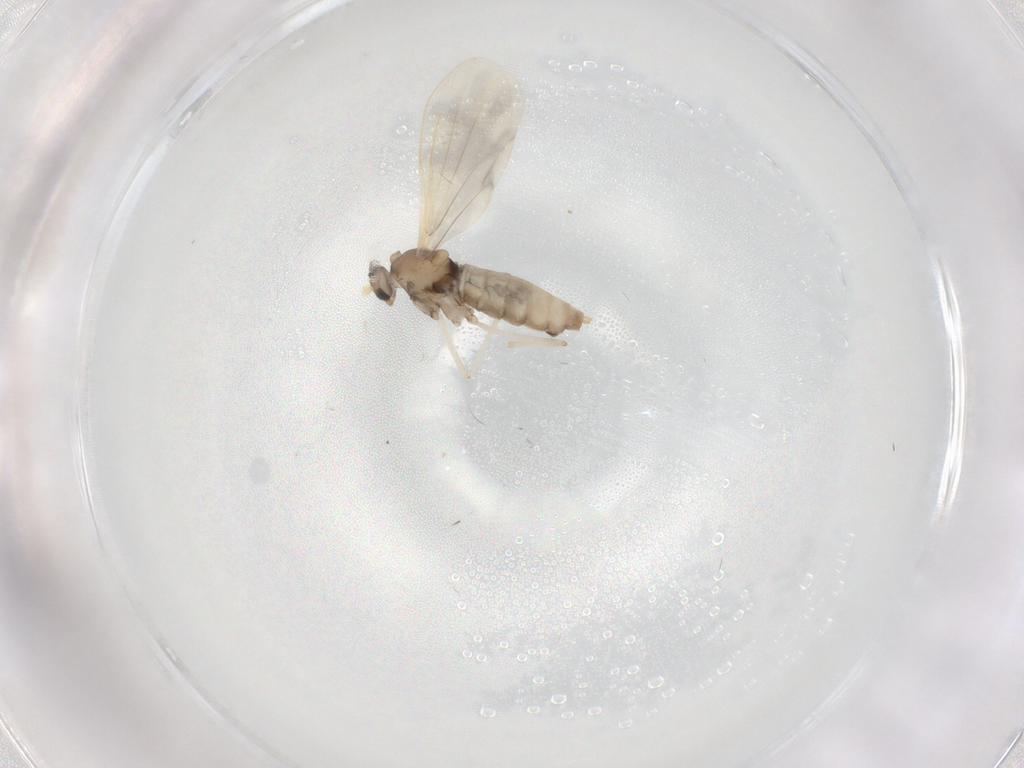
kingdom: Animalia
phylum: Arthropoda
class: Insecta
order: Diptera
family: Cecidomyiidae
